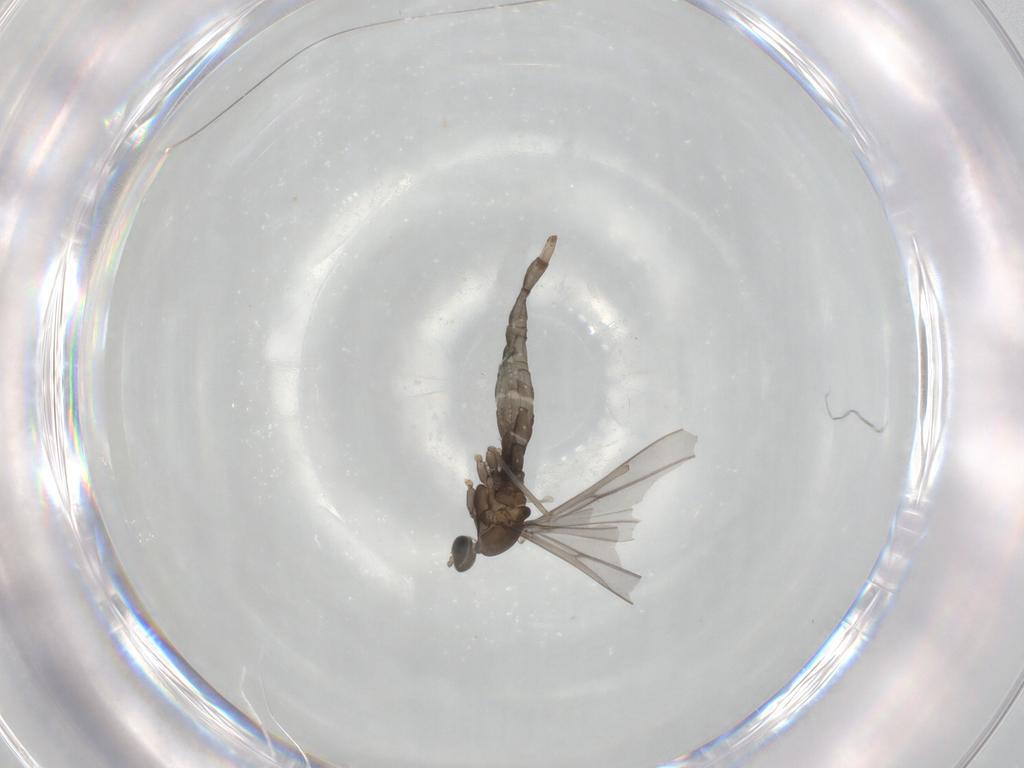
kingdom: Animalia
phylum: Arthropoda
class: Insecta
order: Diptera
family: Cecidomyiidae
